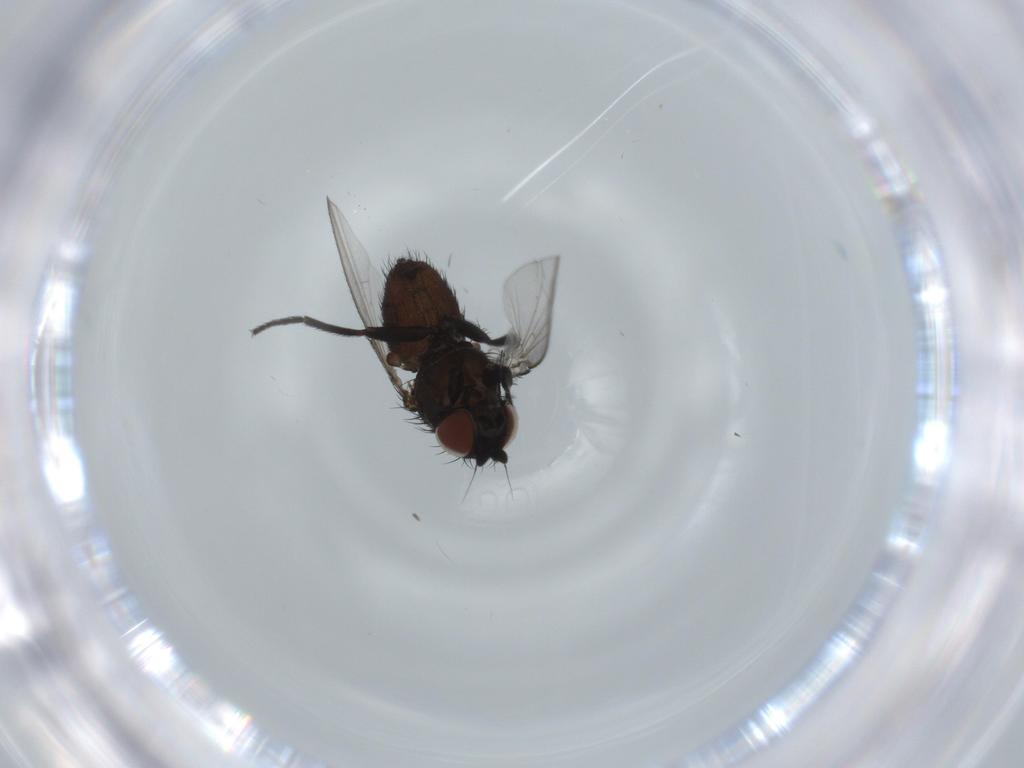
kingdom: Animalia
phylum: Arthropoda
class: Insecta
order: Diptera
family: Milichiidae
